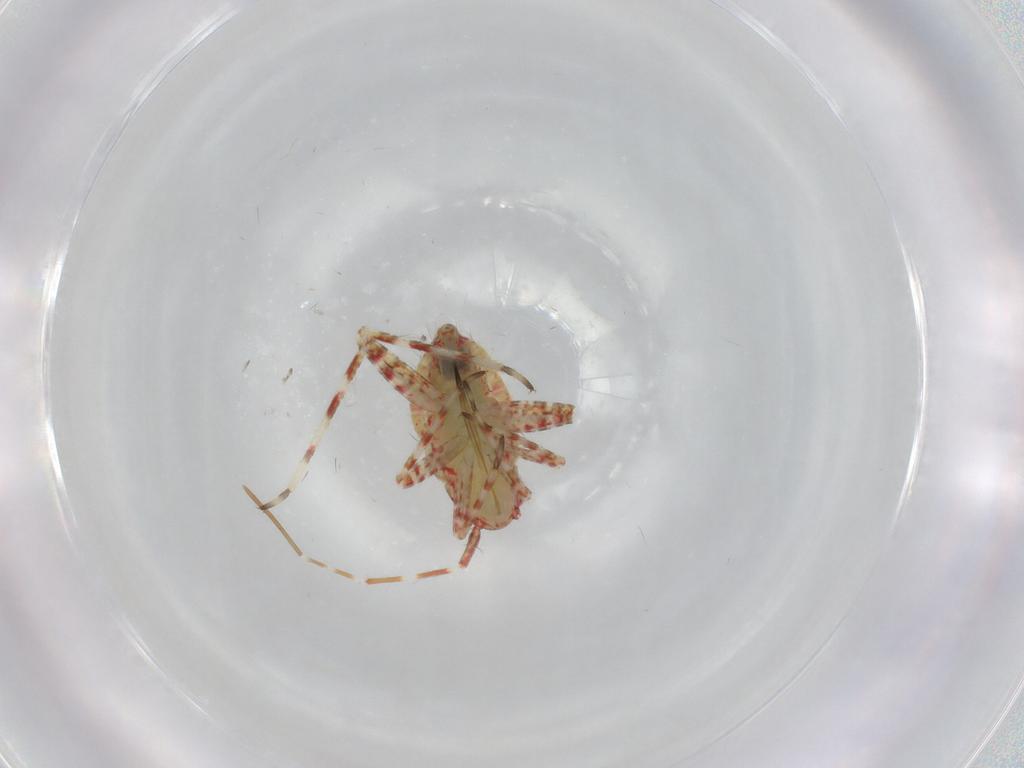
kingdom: Animalia
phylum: Arthropoda
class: Insecta
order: Hemiptera
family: Miridae
